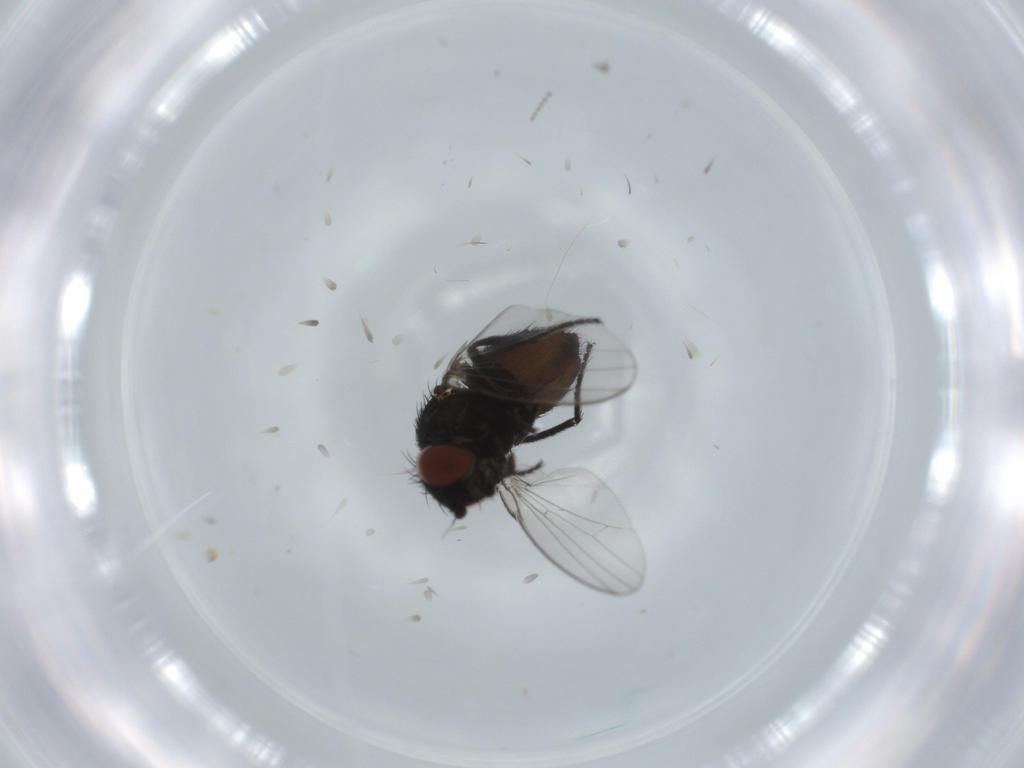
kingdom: Animalia
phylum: Arthropoda
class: Insecta
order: Diptera
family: Milichiidae
